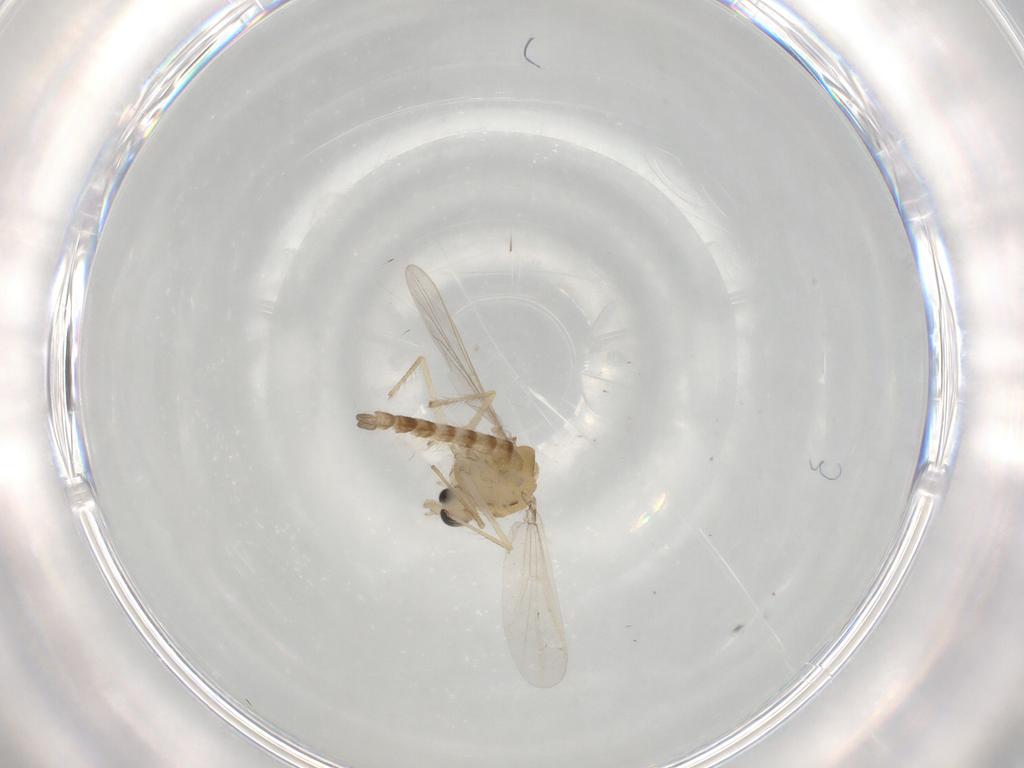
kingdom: Animalia
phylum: Arthropoda
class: Insecta
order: Diptera
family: Chironomidae
